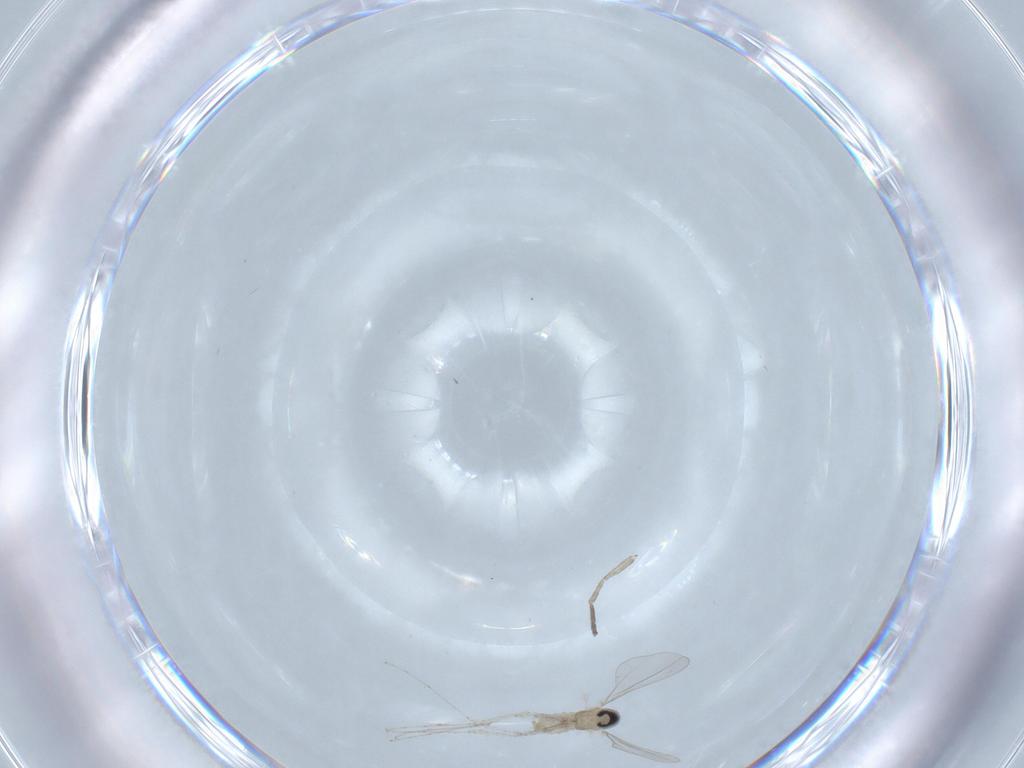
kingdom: Animalia
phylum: Arthropoda
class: Insecta
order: Diptera
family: Cecidomyiidae
